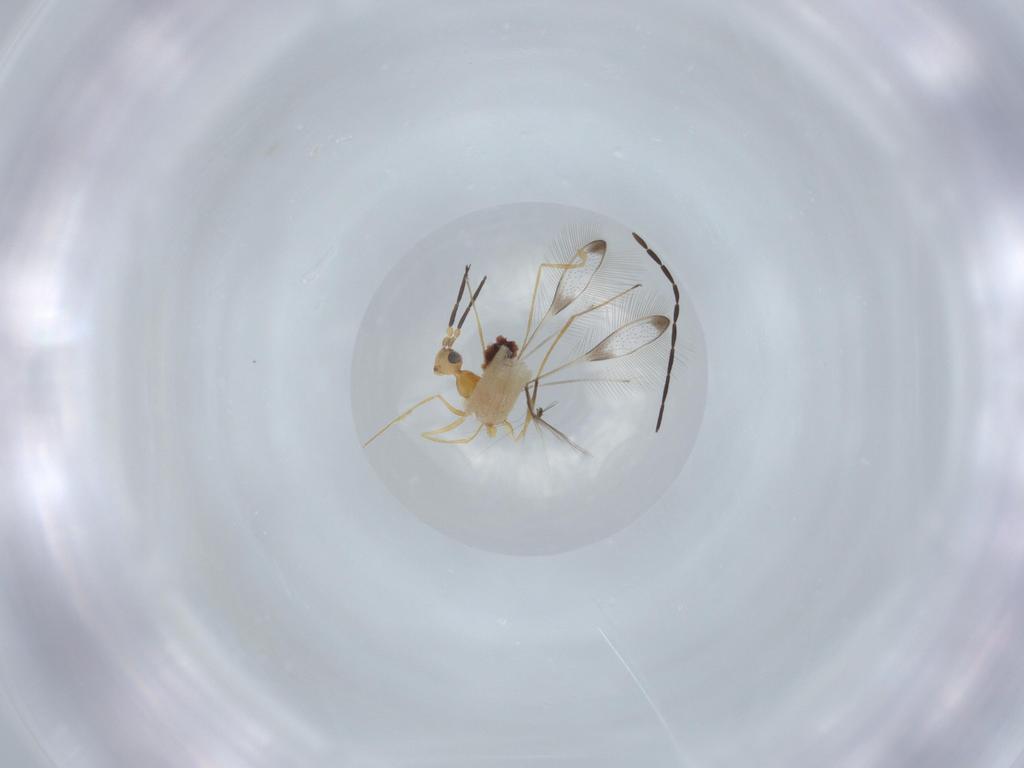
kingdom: Animalia
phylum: Arthropoda
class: Insecta
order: Hymenoptera
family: Mymaridae
